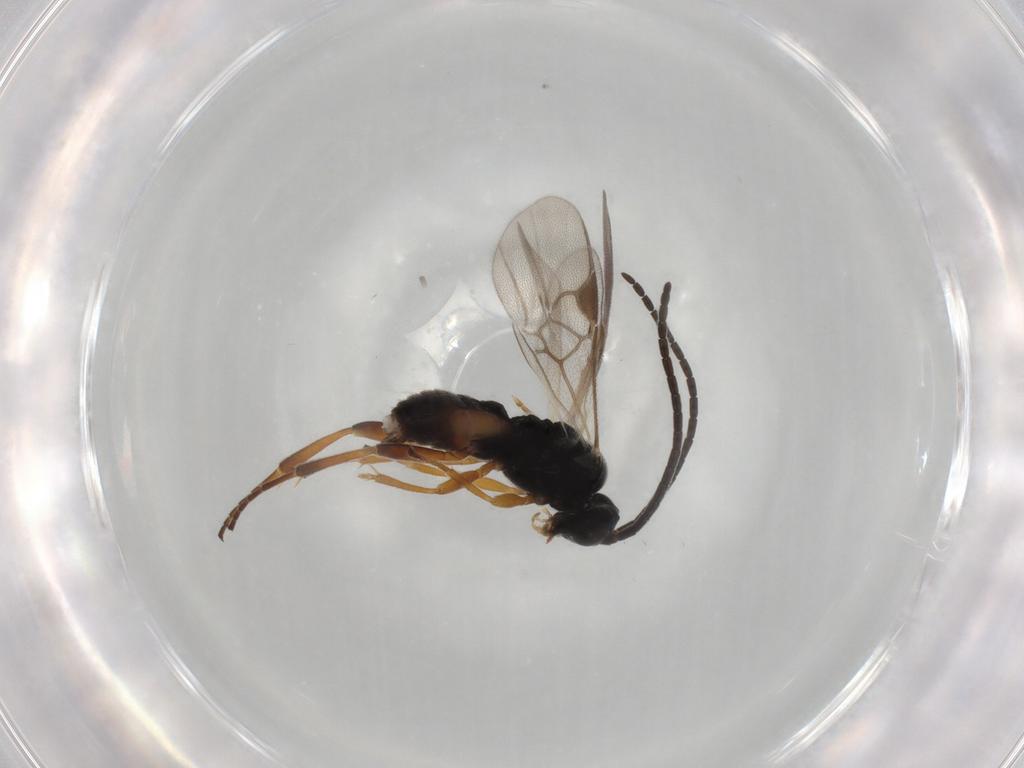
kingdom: Animalia
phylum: Arthropoda
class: Insecta
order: Hymenoptera
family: Braconidae
